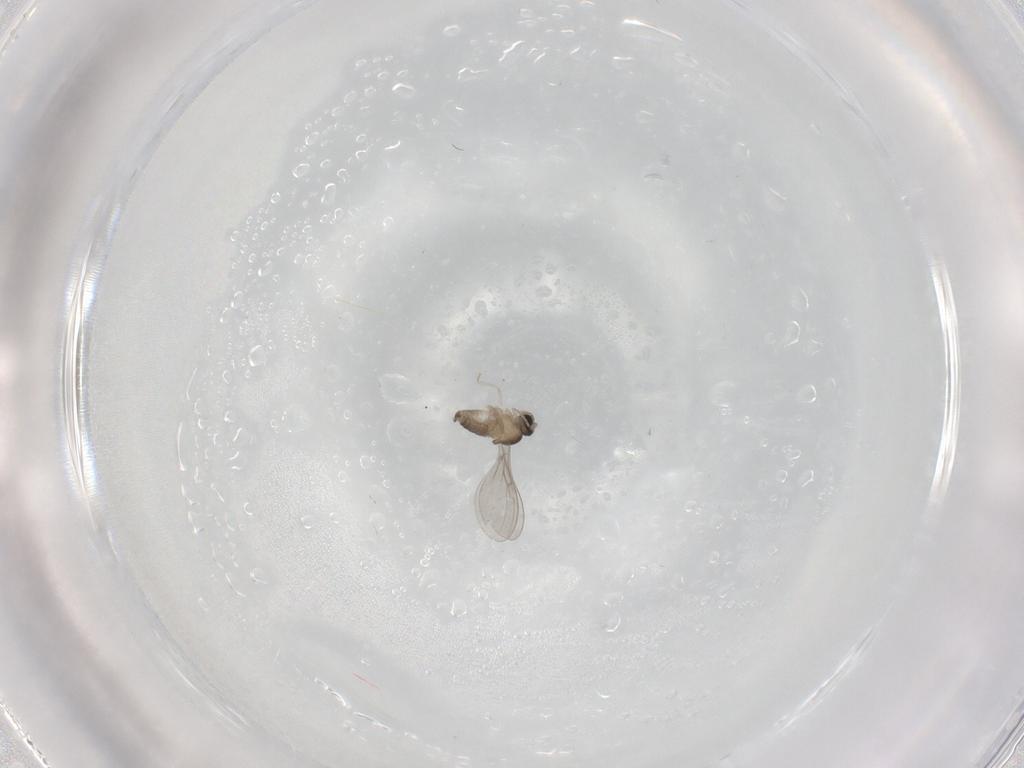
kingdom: Animalia
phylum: Arthropoda
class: Insecta
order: Diptera
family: Cecidomyiidae
